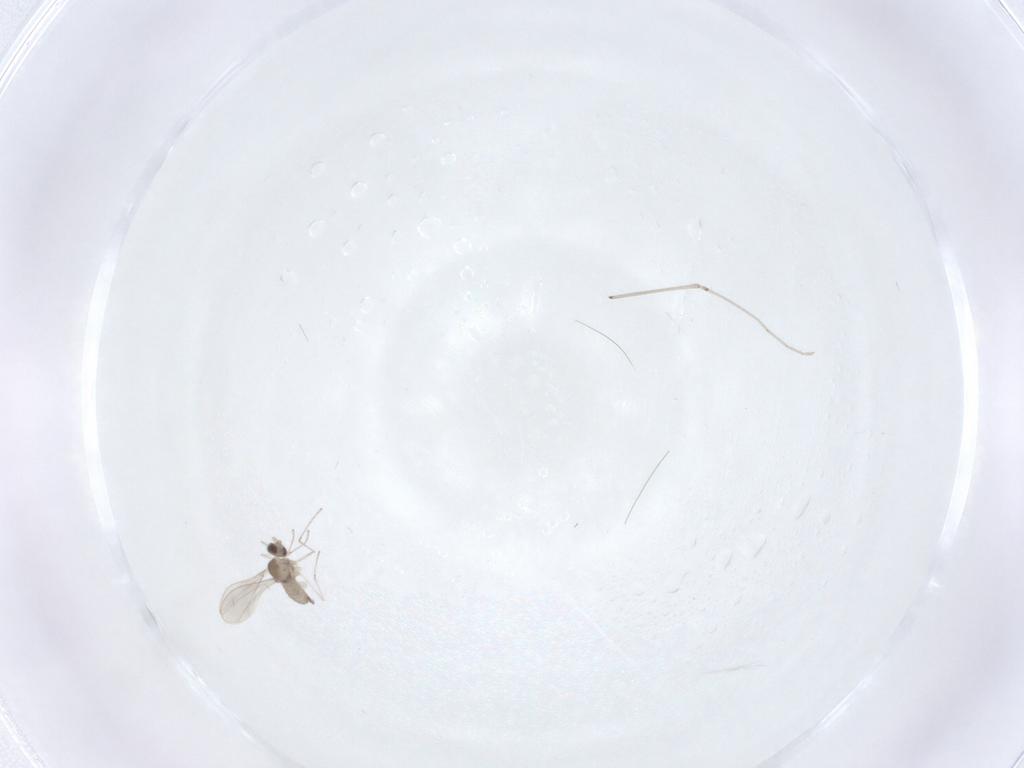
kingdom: Animalia
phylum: Arthropoda
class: Insecta
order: Diptera
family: Cecidomyiidae
